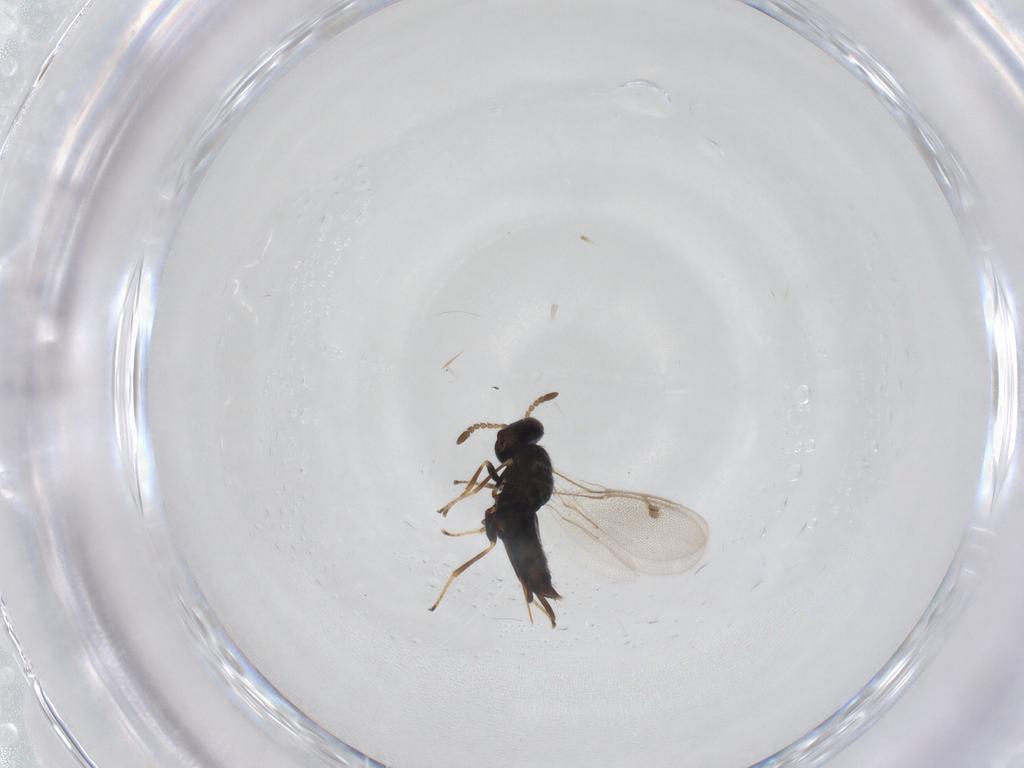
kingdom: Animalia
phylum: Arthropoda
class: Insecta
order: Hymenoptera
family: Pirenidae
